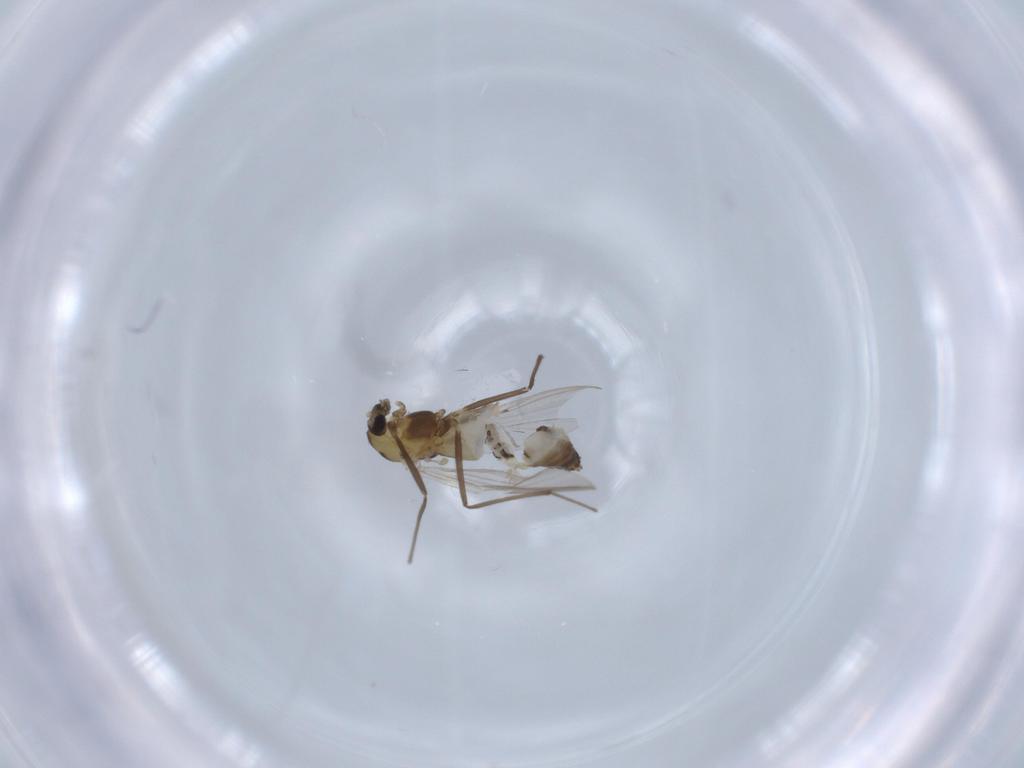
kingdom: Animalia
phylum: Arthropoda
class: Insecta
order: Diptera
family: Chironomidae
